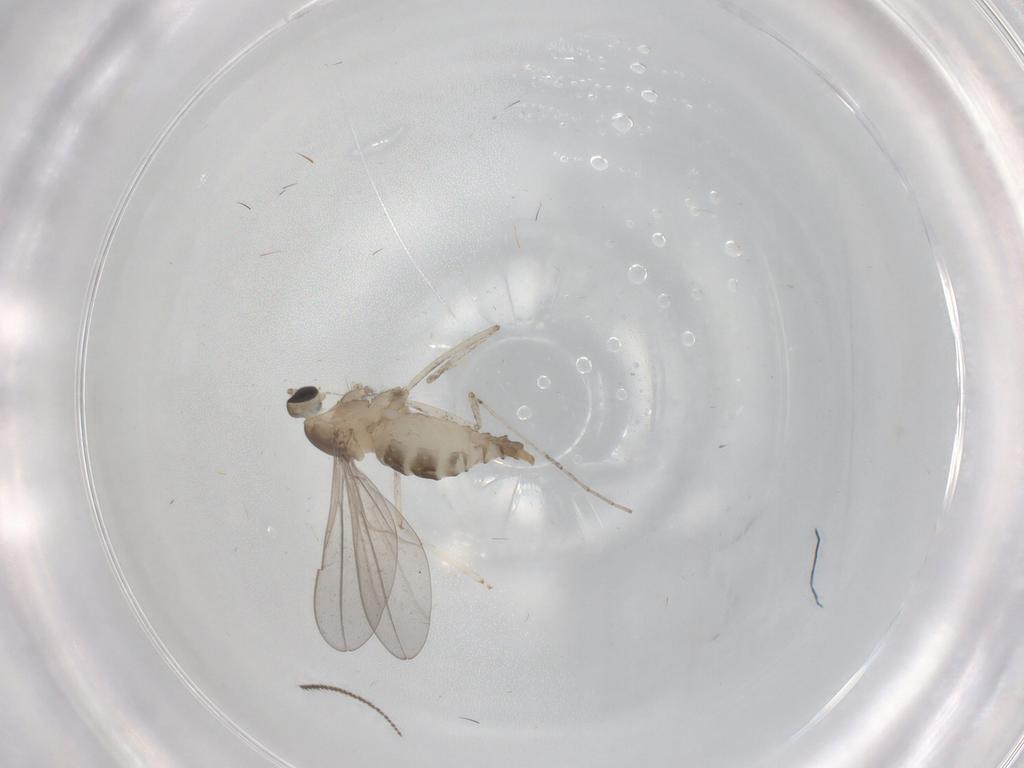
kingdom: Animalia
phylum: Arthropoda
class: Insecta
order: Diptera
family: Cecidomyiidae
